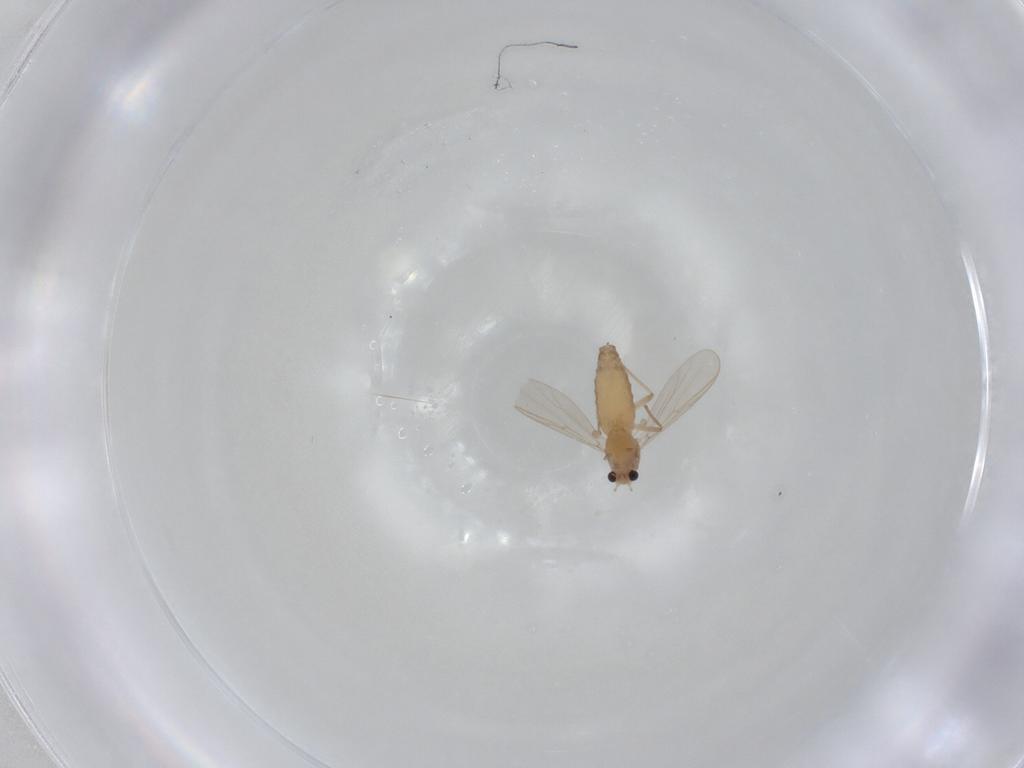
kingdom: Animalia
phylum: Arthropoda
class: Insecta
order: Diptera
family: Chironomidae
